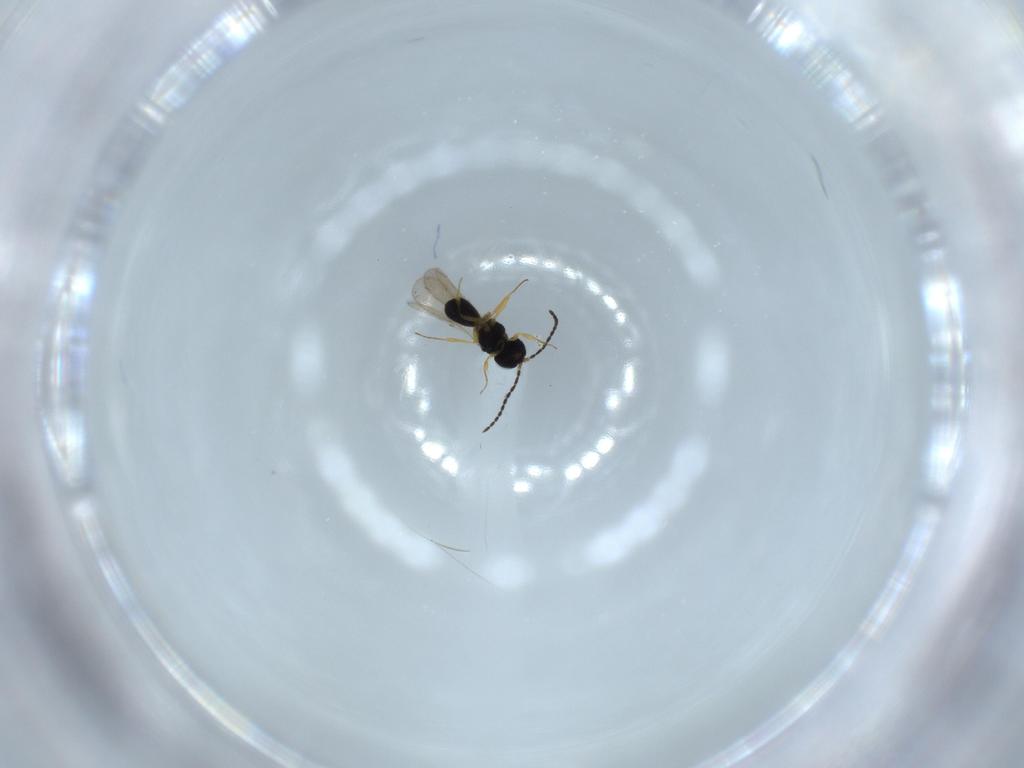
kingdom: Animalia
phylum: Arthropoda
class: Insecta
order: Hymenoptera
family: Scelionidae
